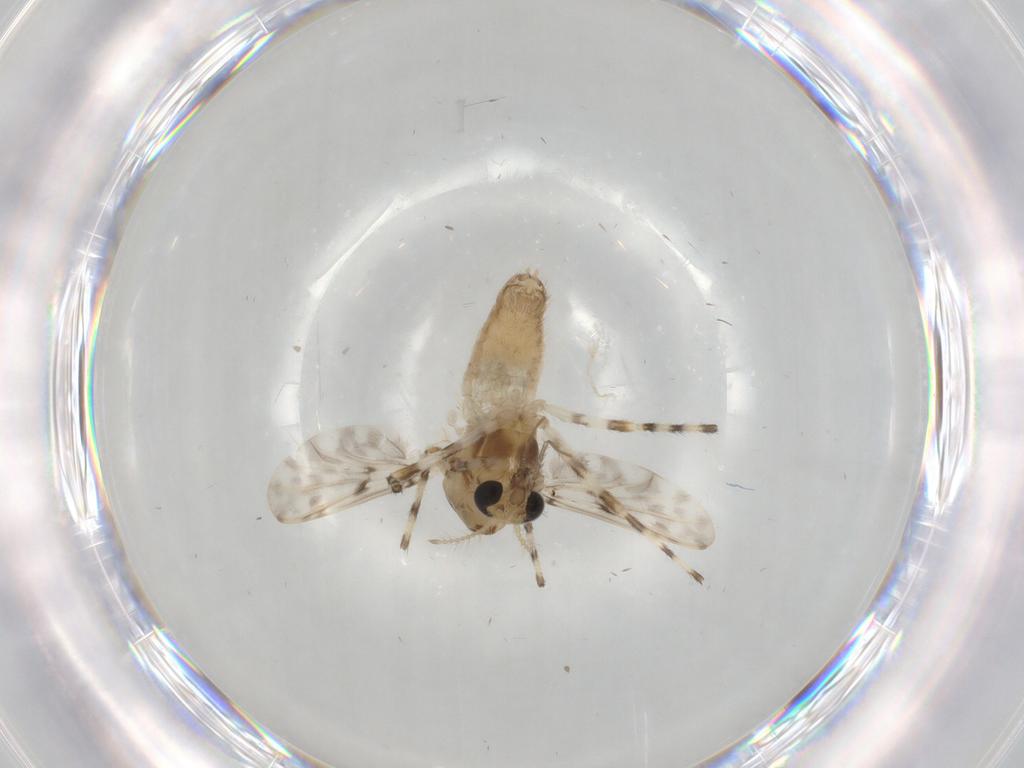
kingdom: Animalia
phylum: Arthropoda
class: Insecta
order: Diptera
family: Chironomidae
